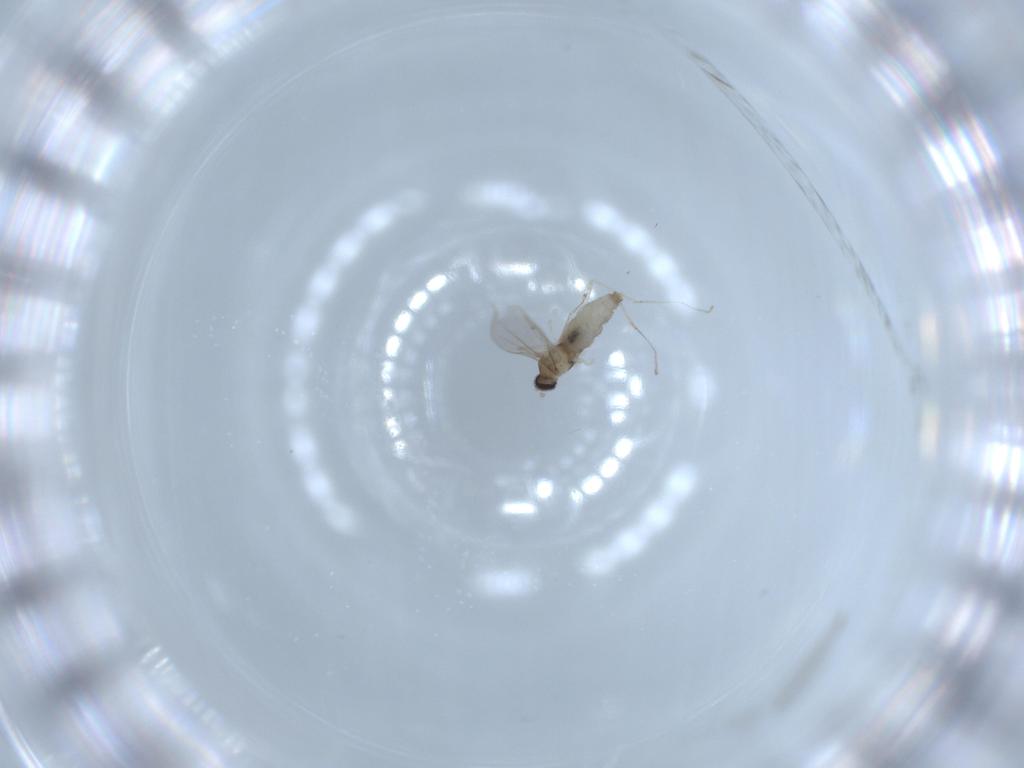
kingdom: Animalia
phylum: Arthropoda
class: Insecta
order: Diptera
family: Cecidomyiidae
